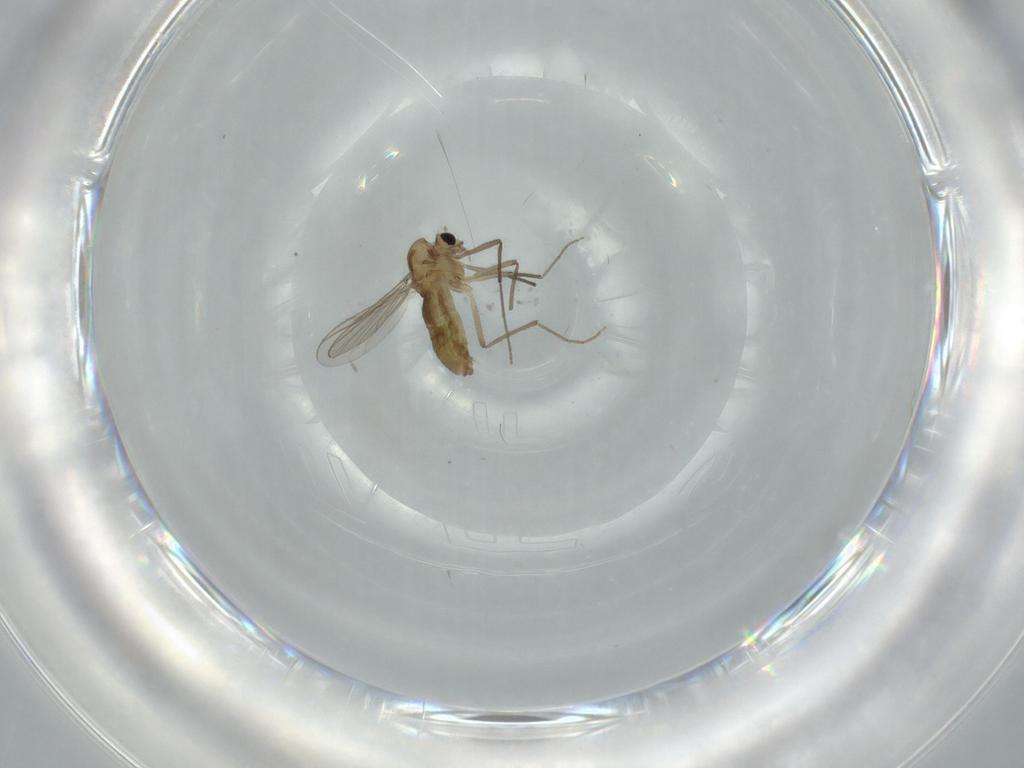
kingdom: Animalia
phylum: Arthropoda
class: Insecta
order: Diptera
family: Chironomidae
